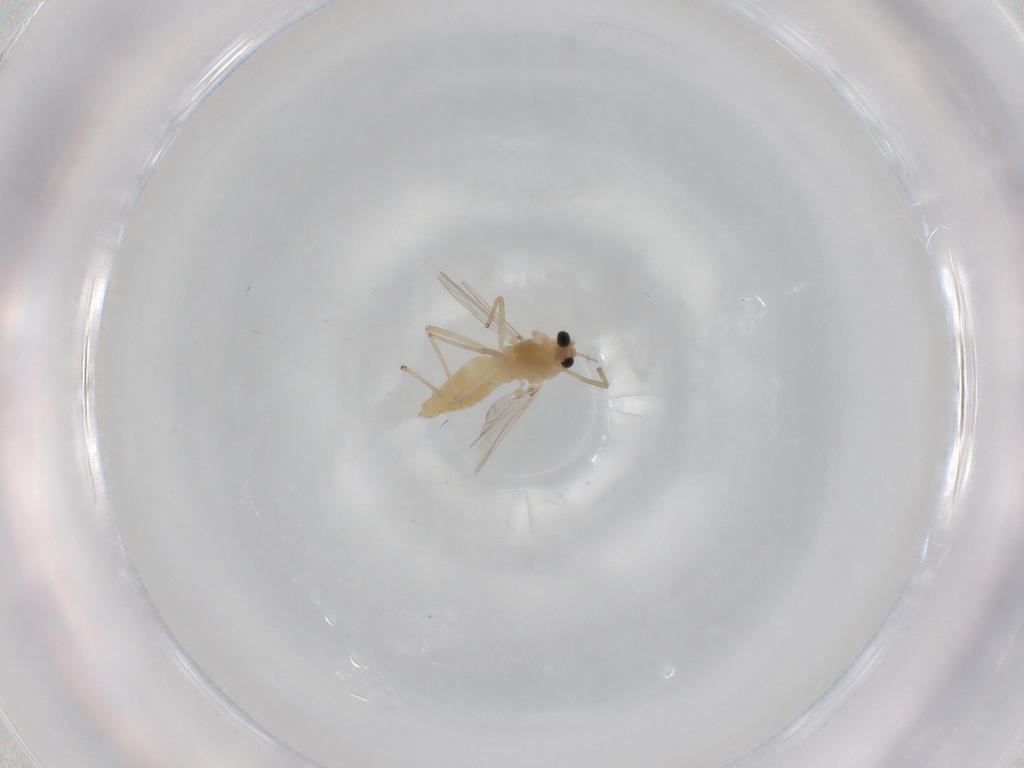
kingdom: Animalia
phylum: Arthropoda
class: Insecta
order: Diptera
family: Chironomidae
